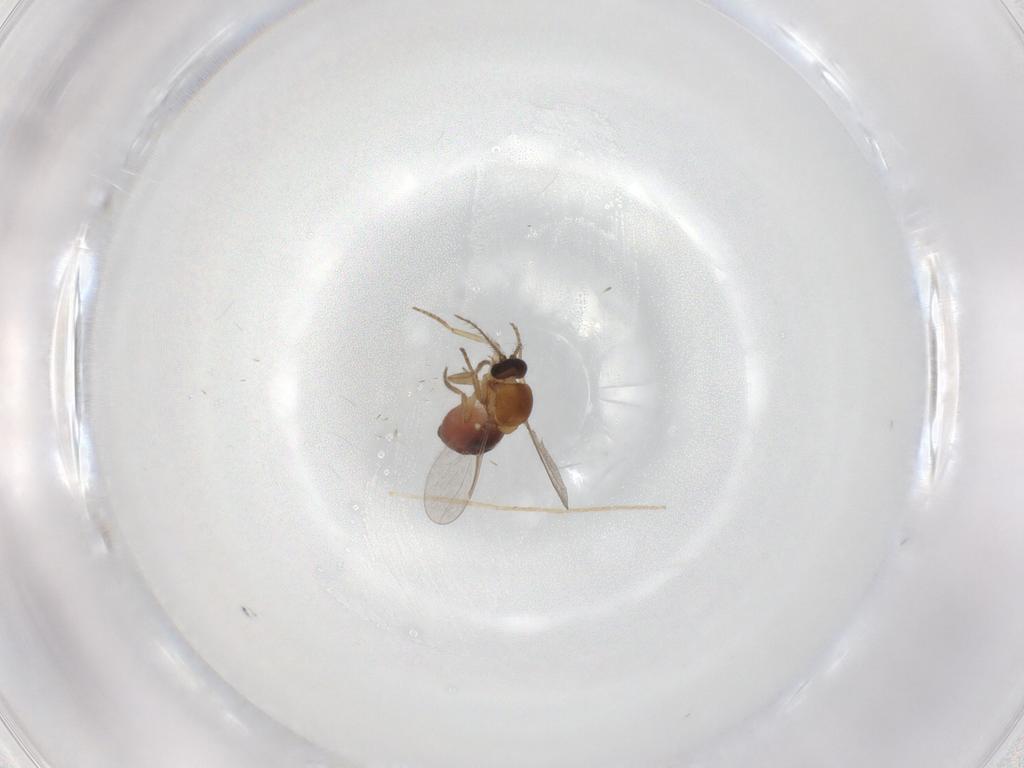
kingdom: Animalia
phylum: Arthropoda
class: Insecta
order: Diptera
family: Ceratopogonidae
